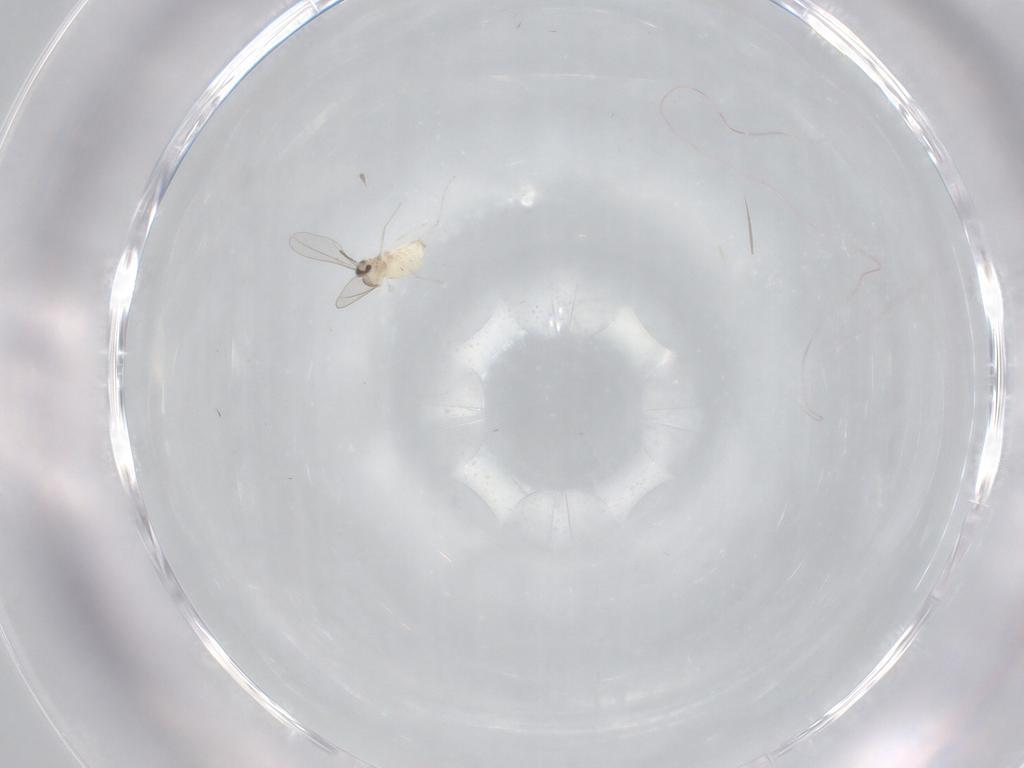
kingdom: Animalia
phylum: Arthropoda
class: Insecta
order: Diptera
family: Cecidomyiidae
